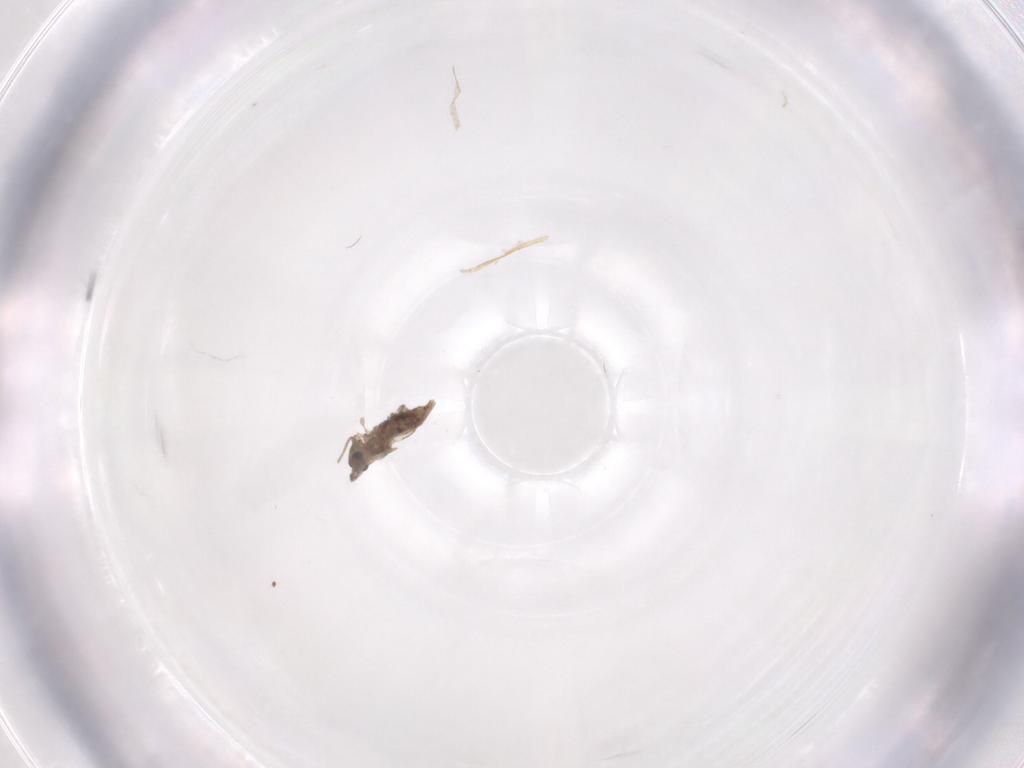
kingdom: Animalia
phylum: Arthropoda
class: Insecta
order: Diptera
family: Chironomidae
